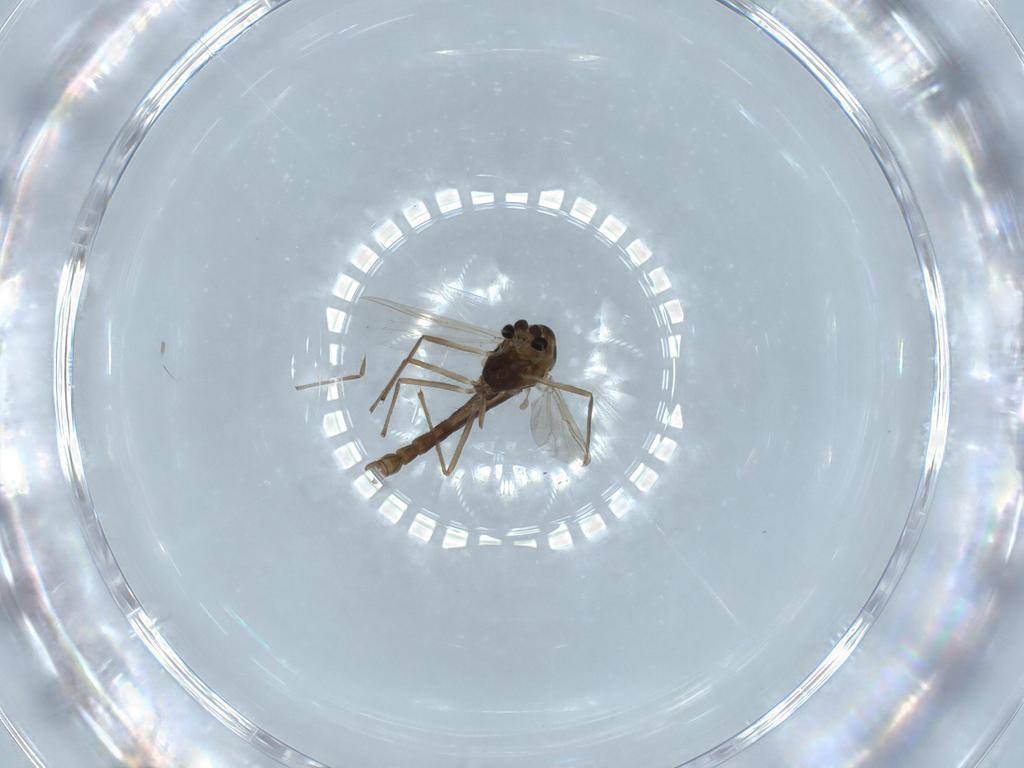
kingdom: Animalia
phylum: Arthropoda
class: Insecta
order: Diptera
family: Chironomidae
